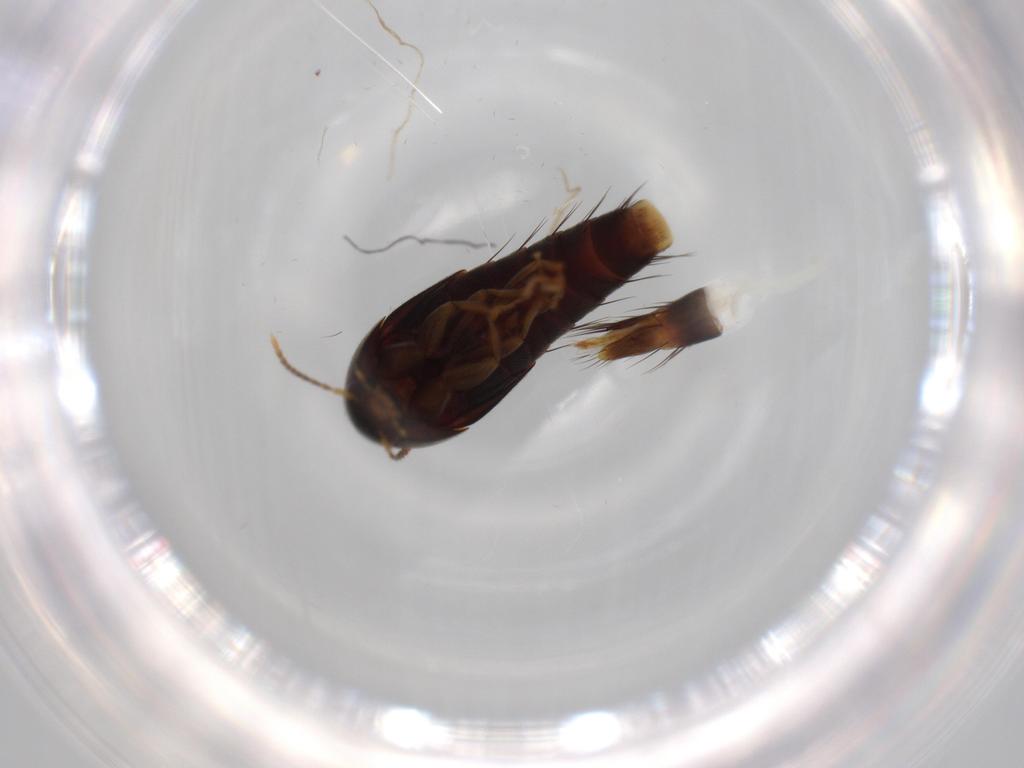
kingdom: Animalia
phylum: Arthropoda
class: Insecta
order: Coleoptera
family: Staphylinidae
